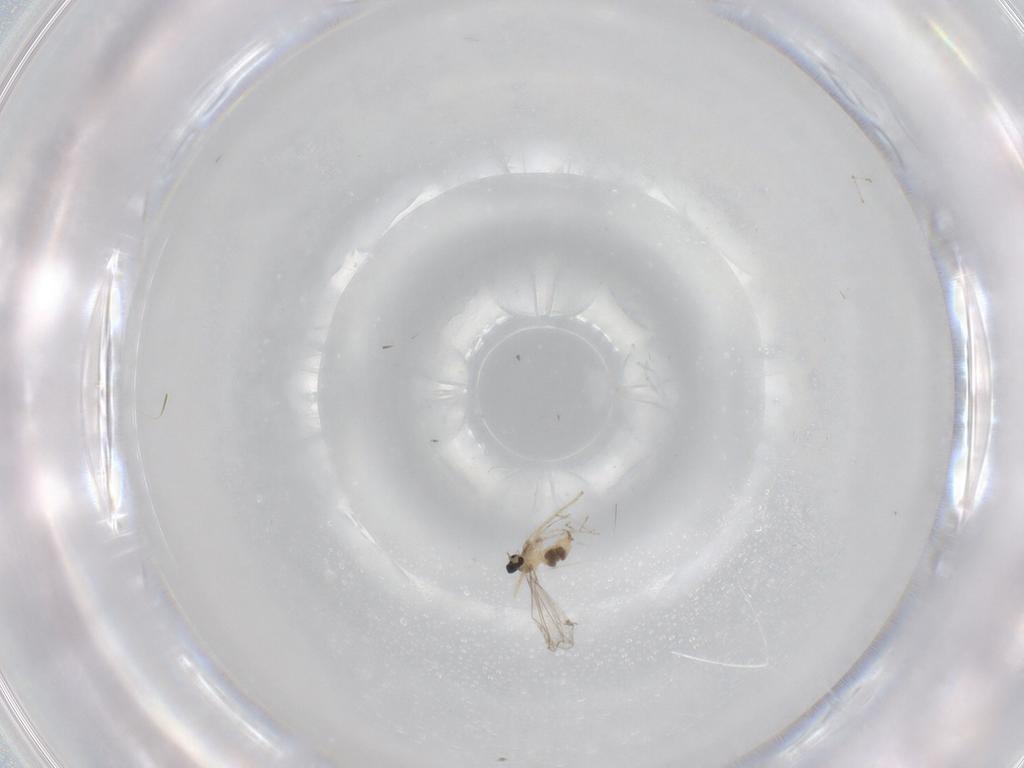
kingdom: Animalia
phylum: Arthropoda
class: Insecta
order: Diptera
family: Cecidomyiidae
